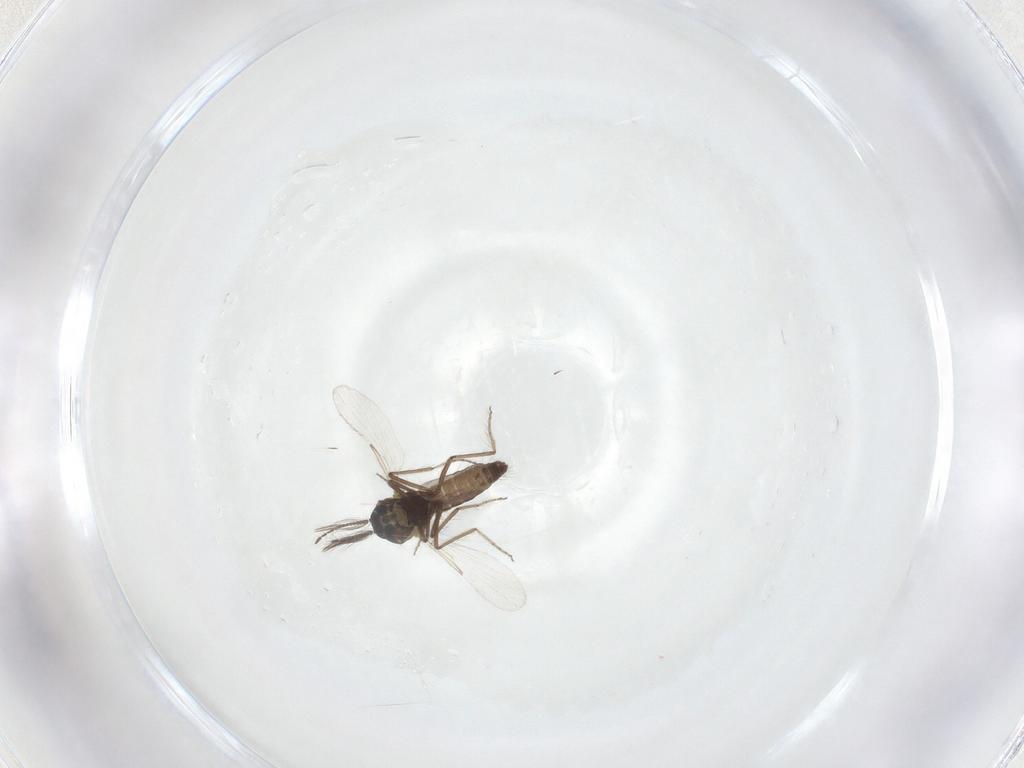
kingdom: Animalia
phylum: Arthropoda
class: Insecta
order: Diptera
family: Ceratopogonidae
